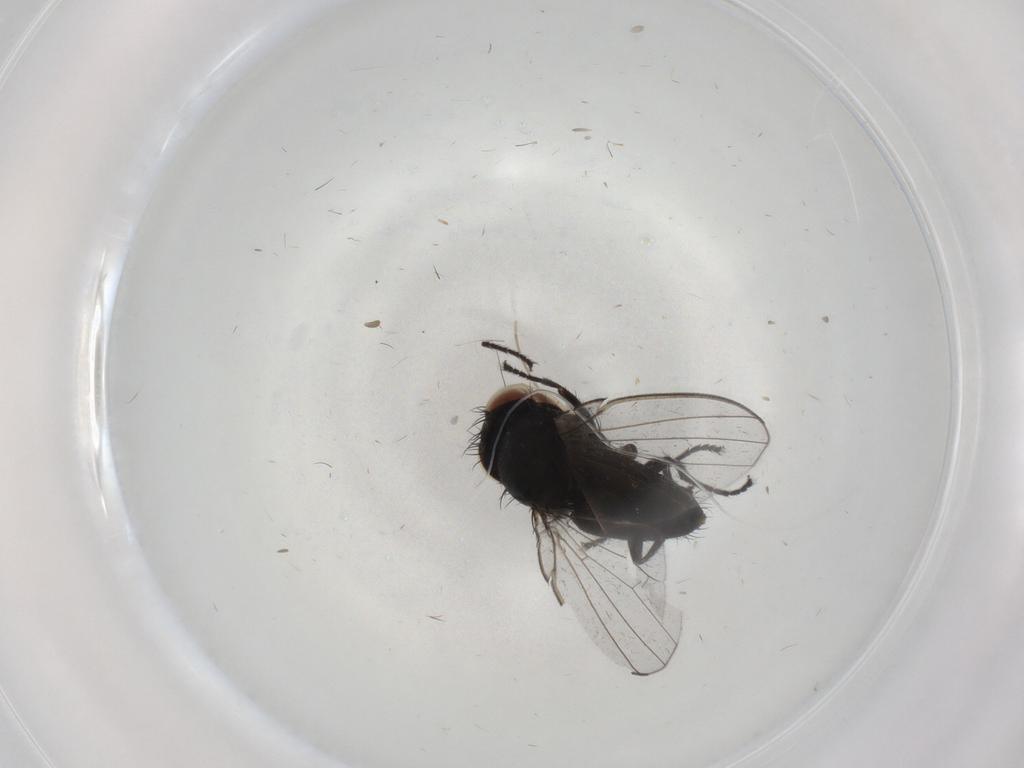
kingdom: Animalia
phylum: Arthropoda
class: Insecta
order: Diptera
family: Milichiidae
